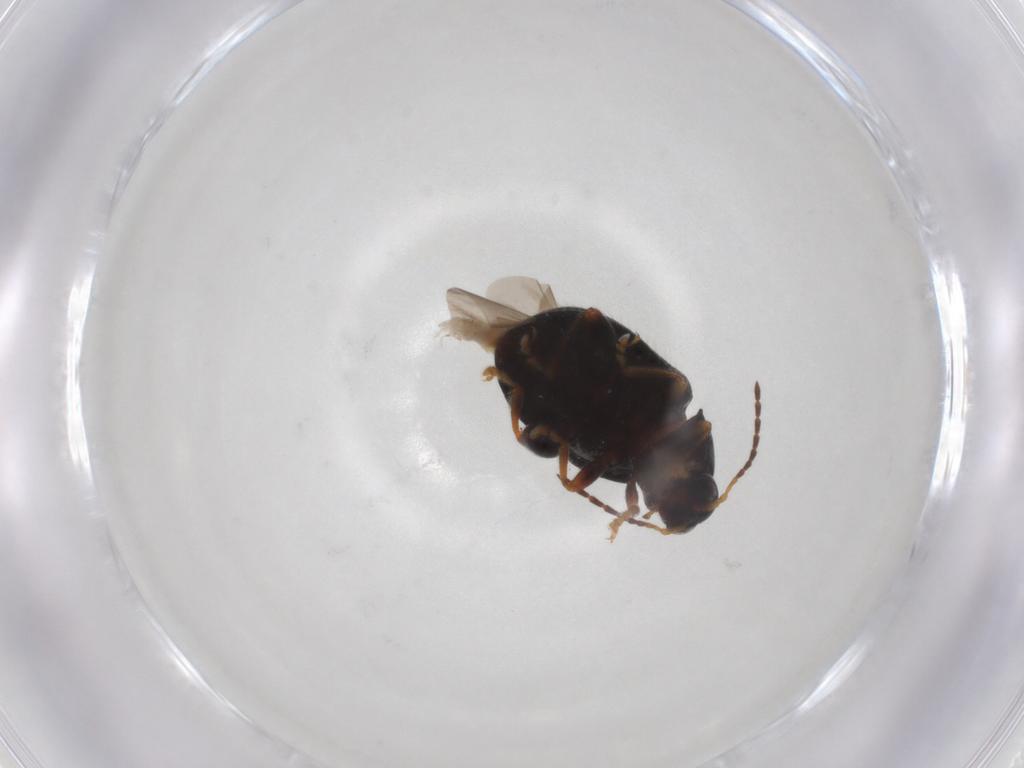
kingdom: Animalia
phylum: Arthropoda
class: Insecta
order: Coleoptera
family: Chrysomelidae
